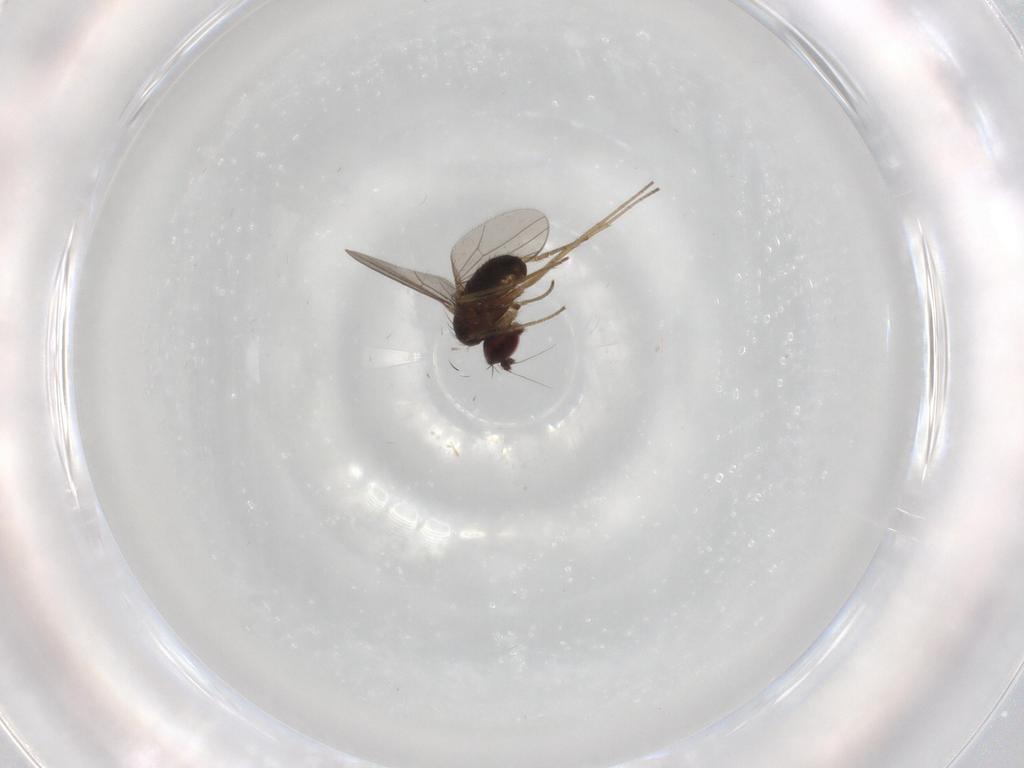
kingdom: Animalia
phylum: Arthropoda
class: Insecta
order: Diptera
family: Dolichopodidae
